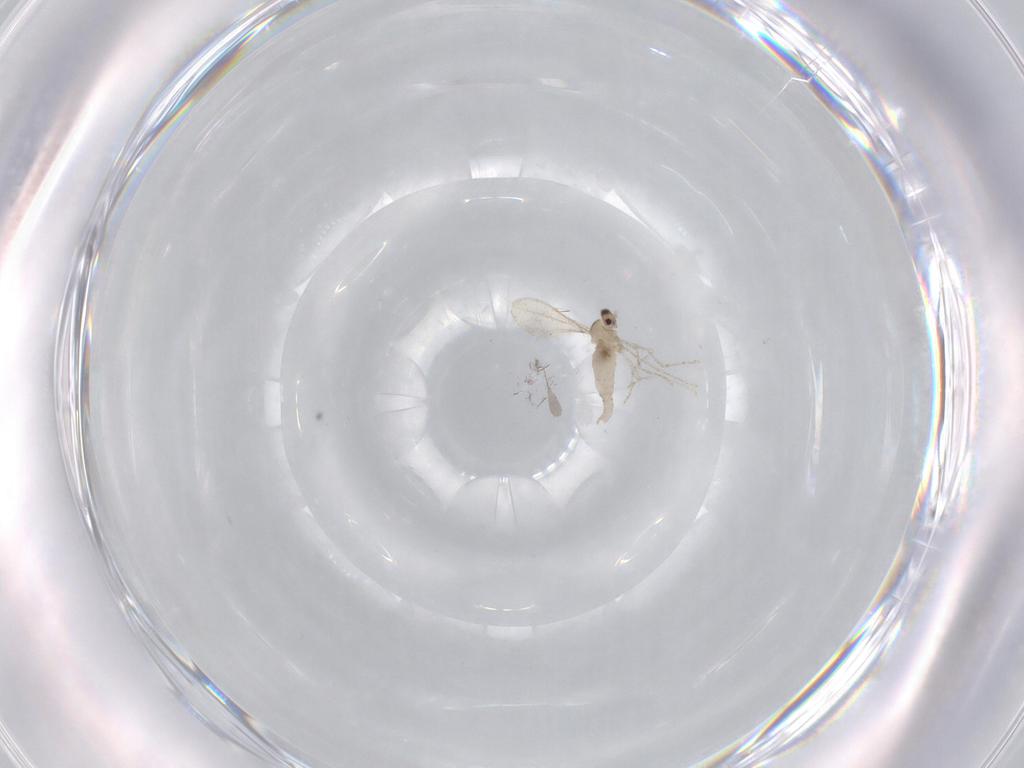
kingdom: Animalia
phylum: Arthropoda
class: Insecta
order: Diptera
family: Cecidomyiidae
